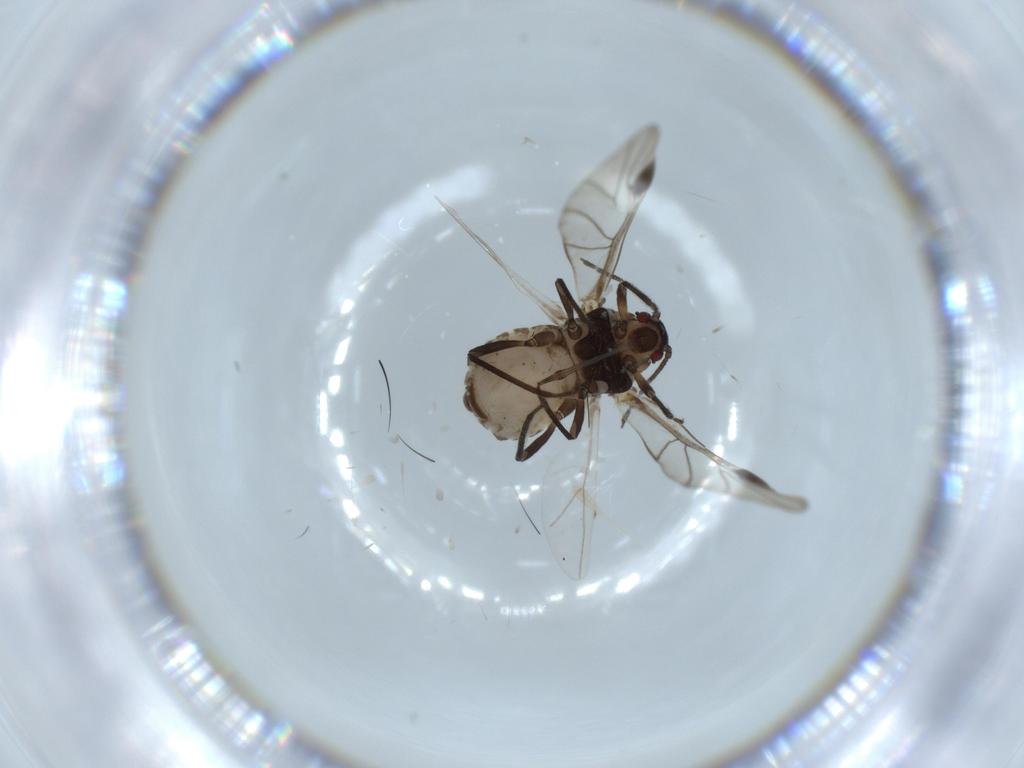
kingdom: Animalia
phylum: Arthropoda
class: Insecta
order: Hemiptera
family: Aphididae
